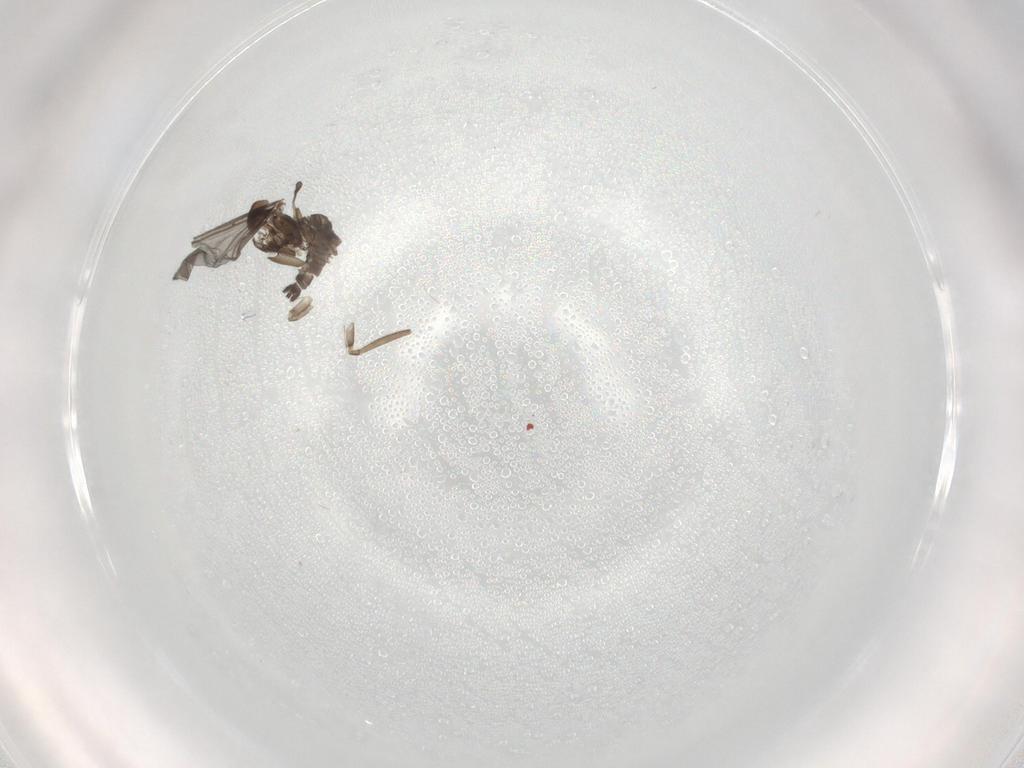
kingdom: Animalia
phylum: Arthropoda
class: Insecta
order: Diptera
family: Sciaridae
